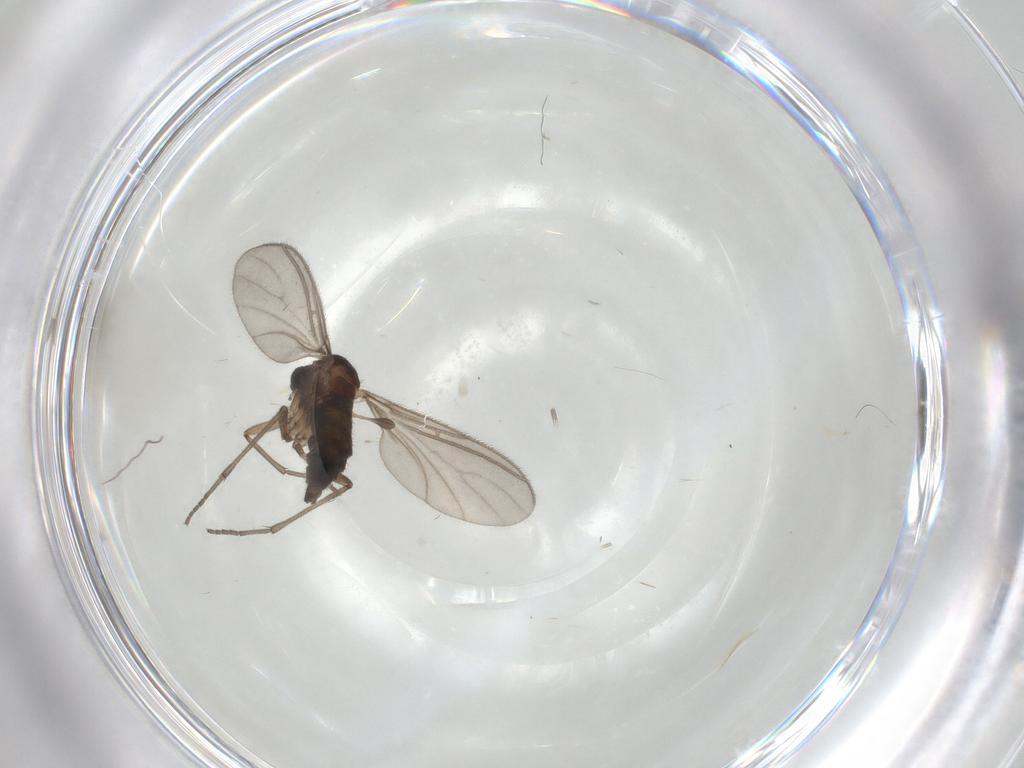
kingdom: Animalia
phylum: Arthropoda
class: Insecta
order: Diptera
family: Sciaridae
